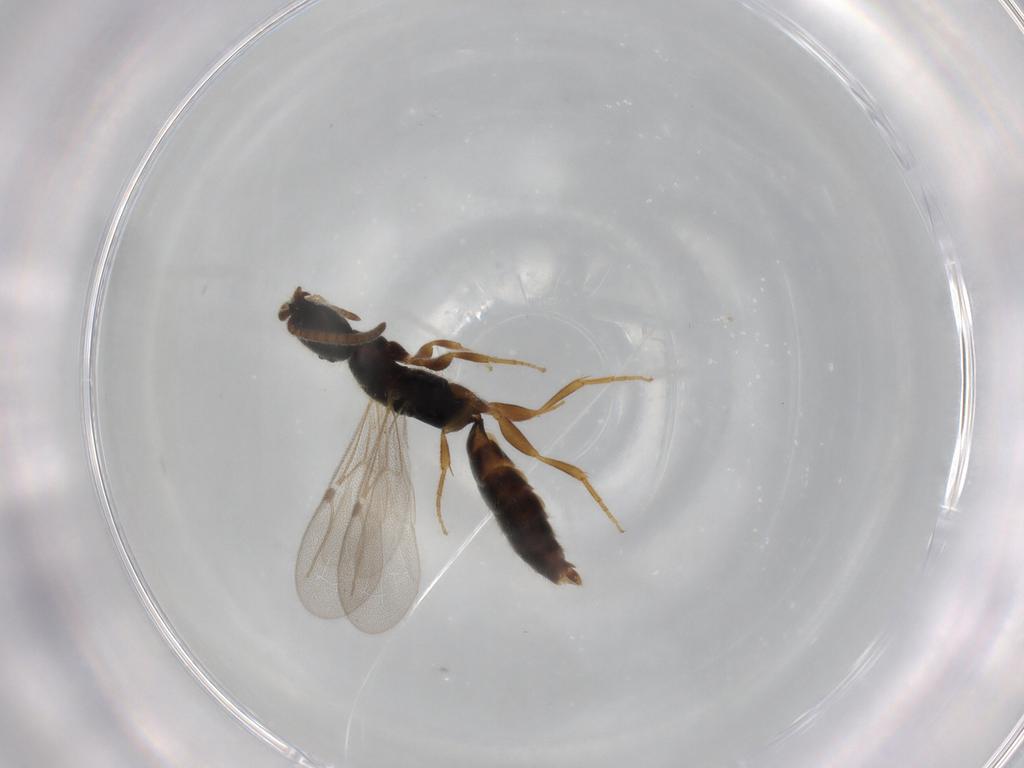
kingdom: Animalia
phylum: Arthropoda
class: Insecta
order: Hymenoptera
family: Bethylidae
